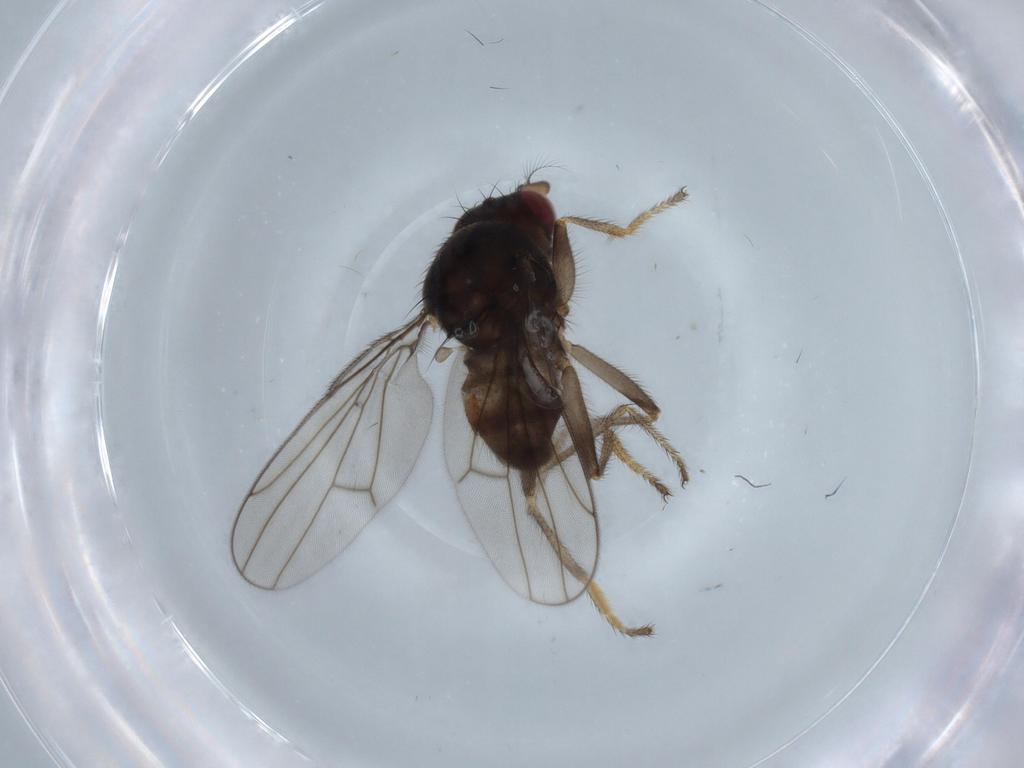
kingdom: Animalia
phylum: Arthropoda
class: Insecta
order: Diptera
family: Ephydridae
